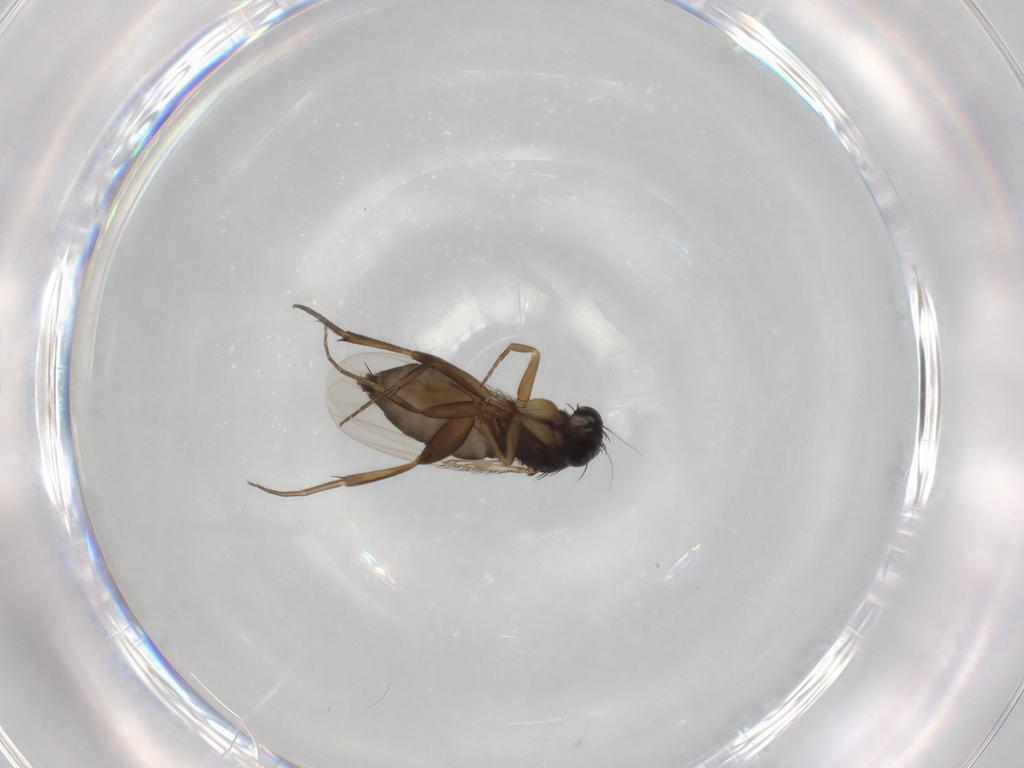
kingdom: Animalia
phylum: Arthropoda
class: Insecta
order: Diptera
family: Phoridae
